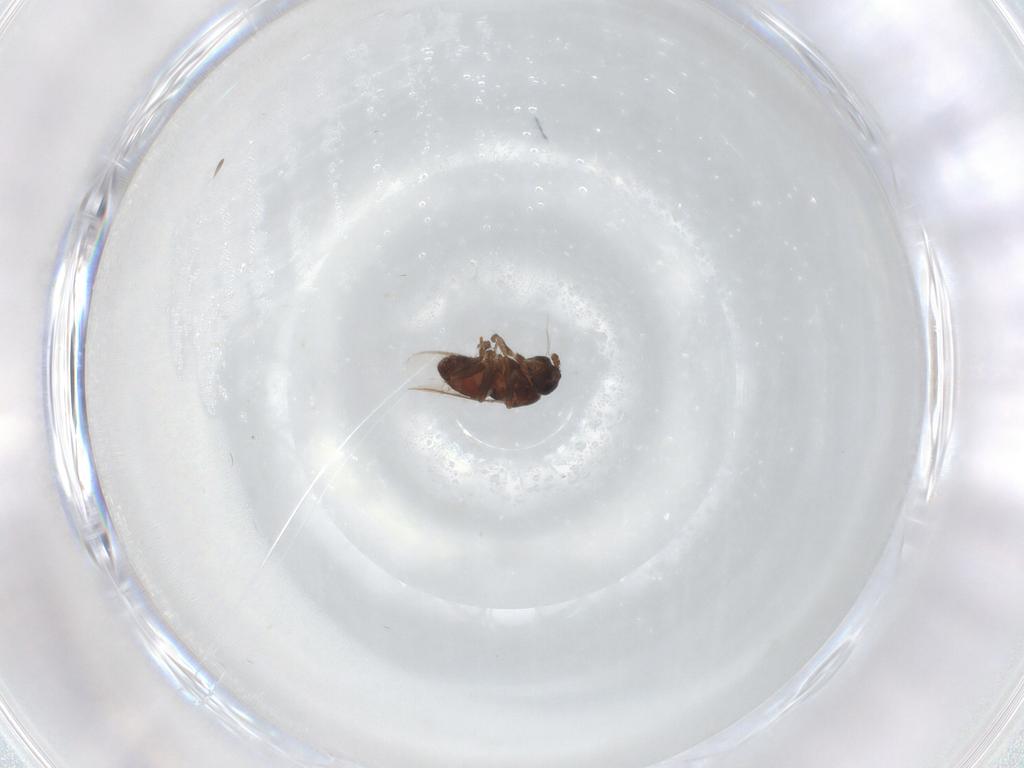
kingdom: Animalia
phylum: Arthropoda
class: Insecta
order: Diptera
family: Lauxaniidae
